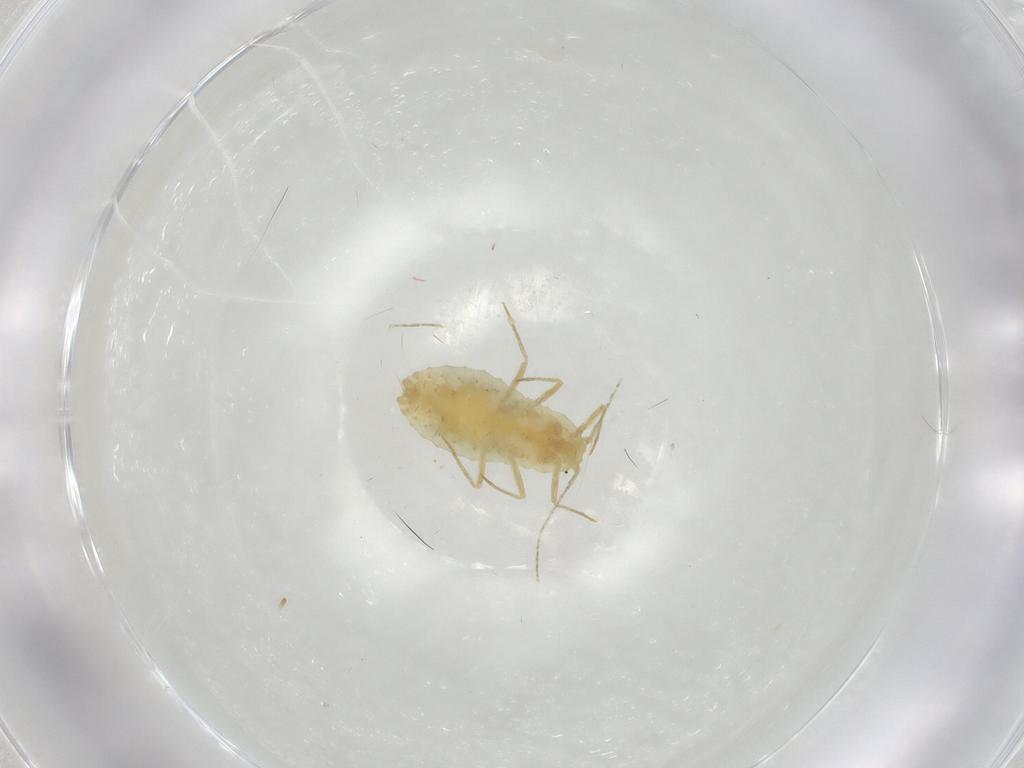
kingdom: Animalia
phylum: Arthropoda
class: Insecta
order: Hemiptera
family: Pseudococcidae
